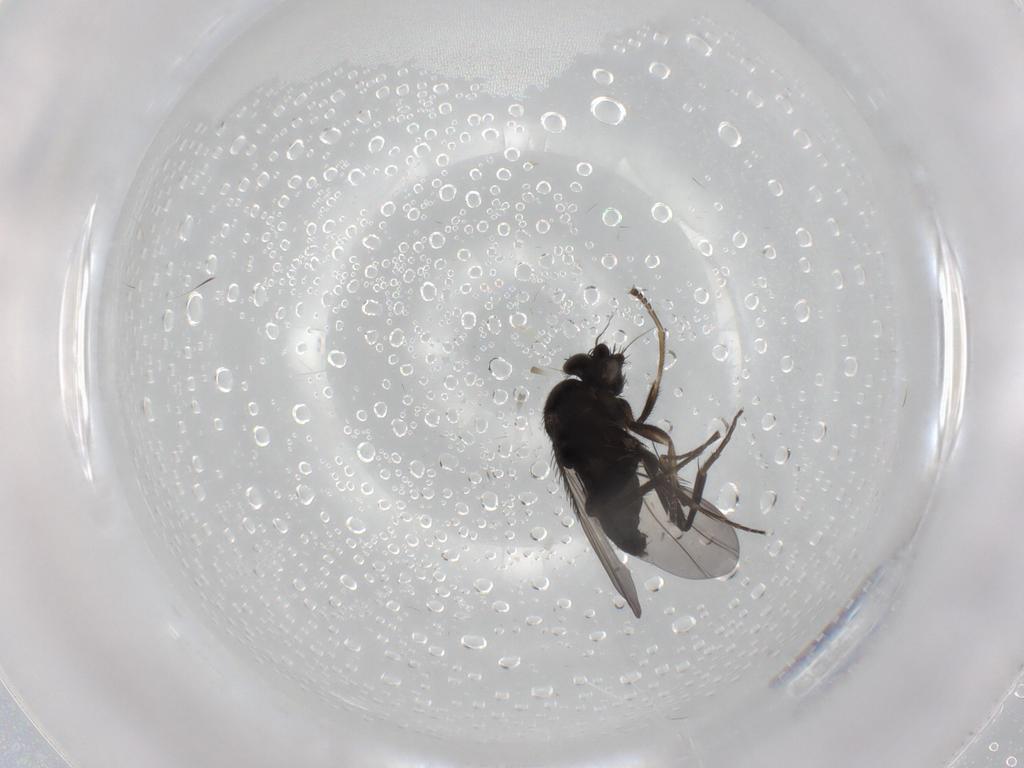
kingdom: Animalia
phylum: Arthropoda
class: Insecta
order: Diptera
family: Phoridae
